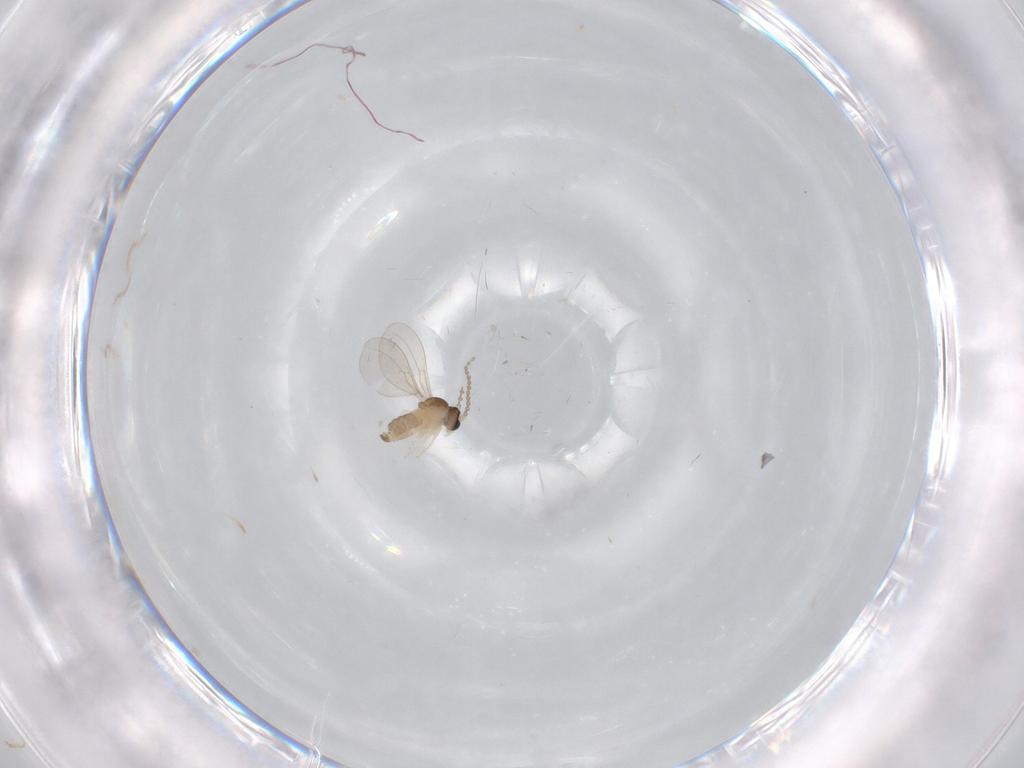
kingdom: Animalia
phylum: Arthropoda
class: Insecta
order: Diptera
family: Cecidomyiidae
